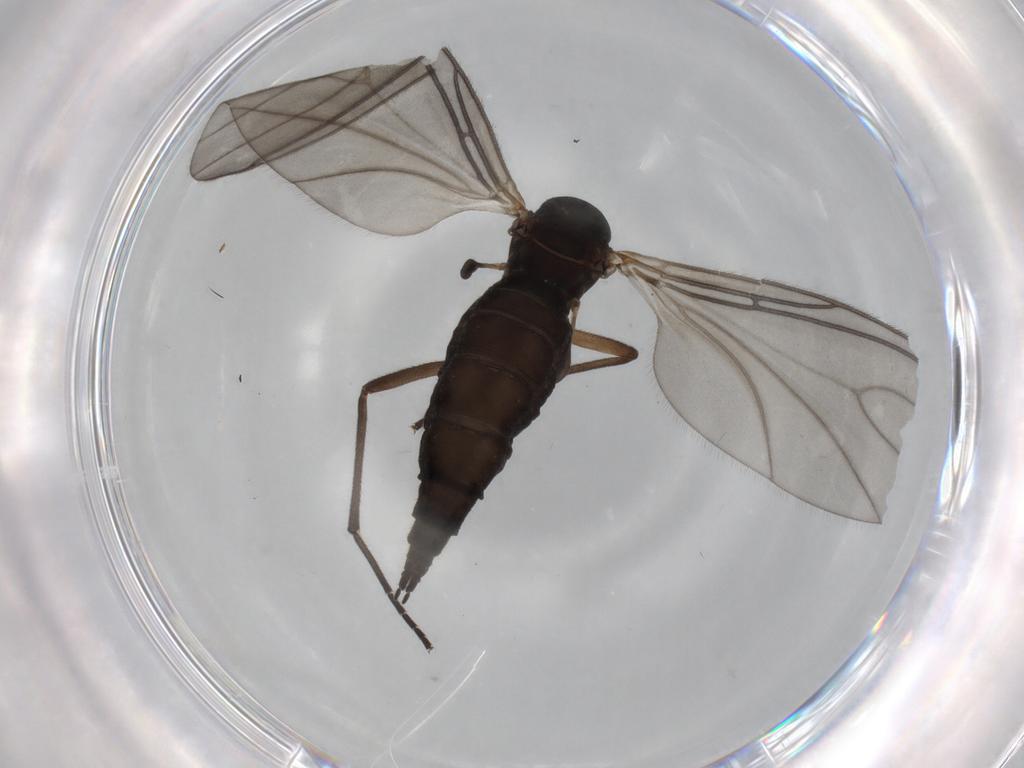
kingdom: Animalia
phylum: Arthropoda
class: Insecta
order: Diptera
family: Sciaridae
